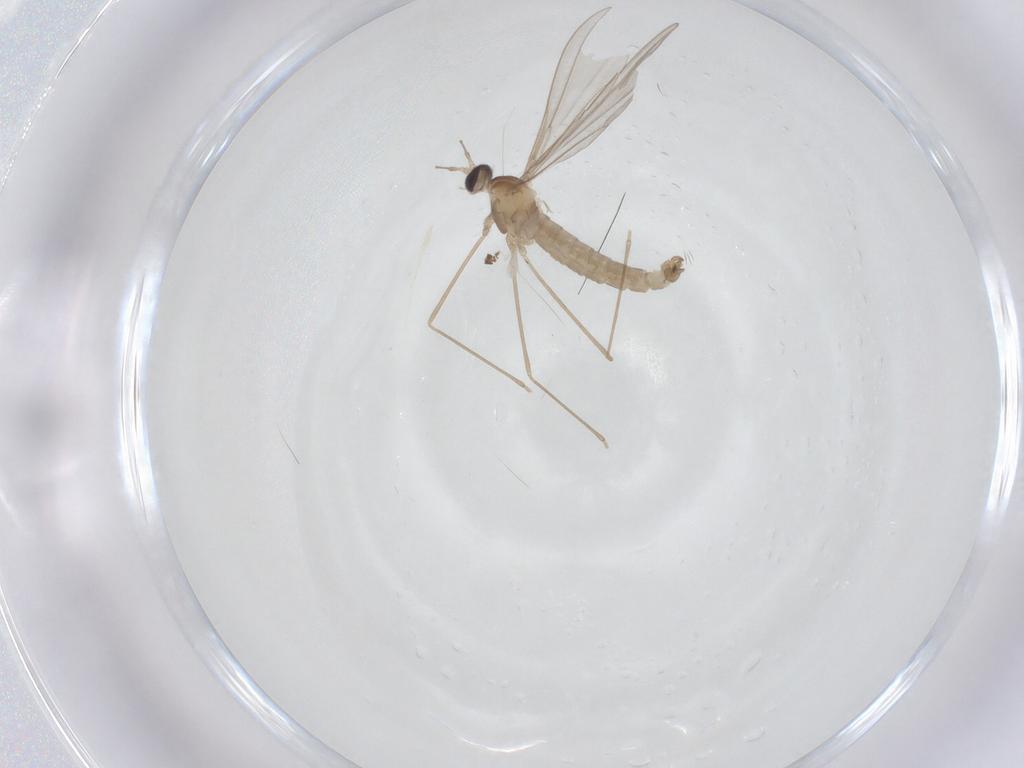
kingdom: Animalia
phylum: Arthropoda
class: Insecta
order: Diptera
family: Cecidomyiidae
